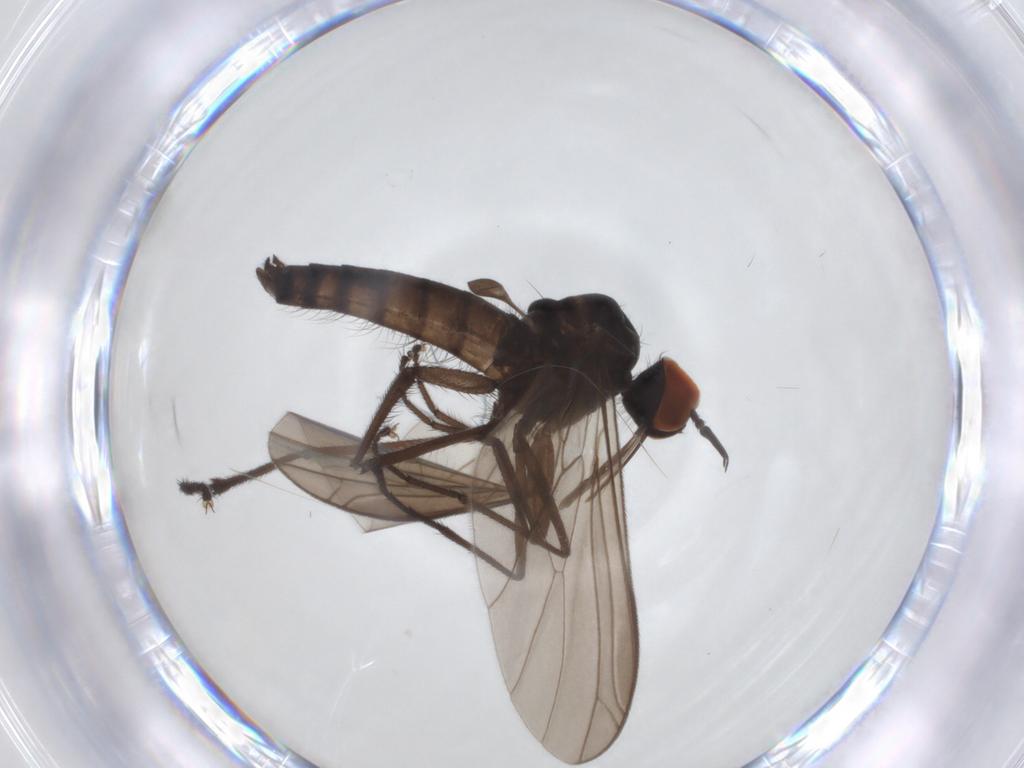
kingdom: Animalia
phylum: Arthropoda
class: Insecta
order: Diptera
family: Empididae
